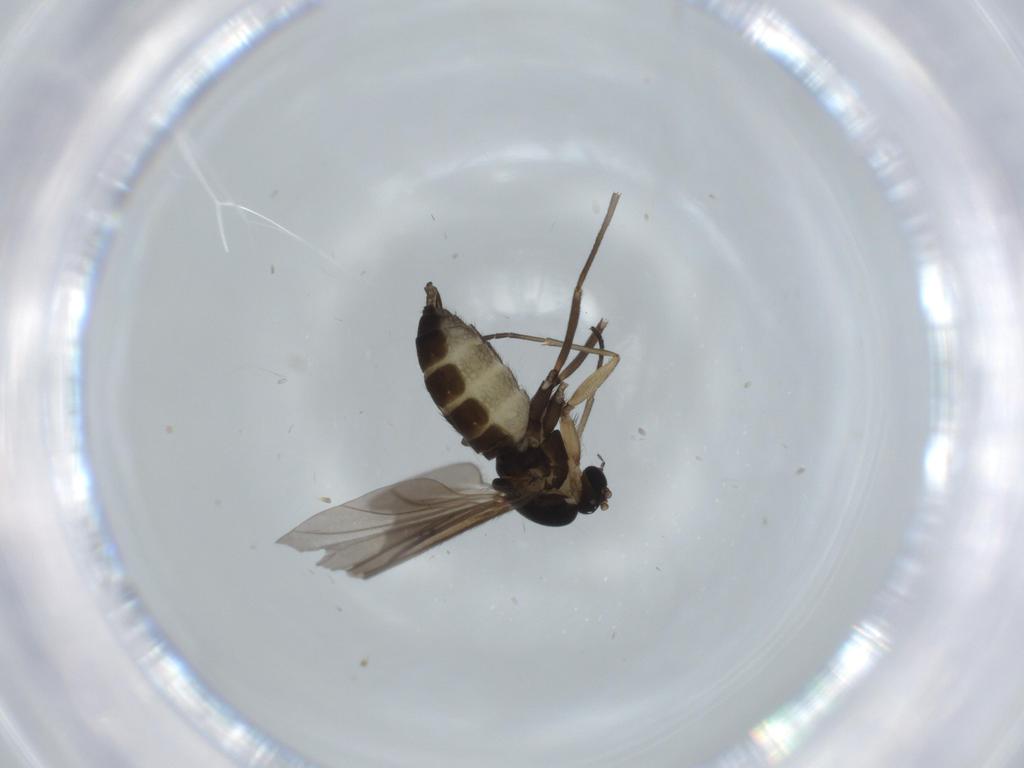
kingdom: Animalia
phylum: Arthropoda
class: Insecta
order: Diptera
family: Sciaridae
